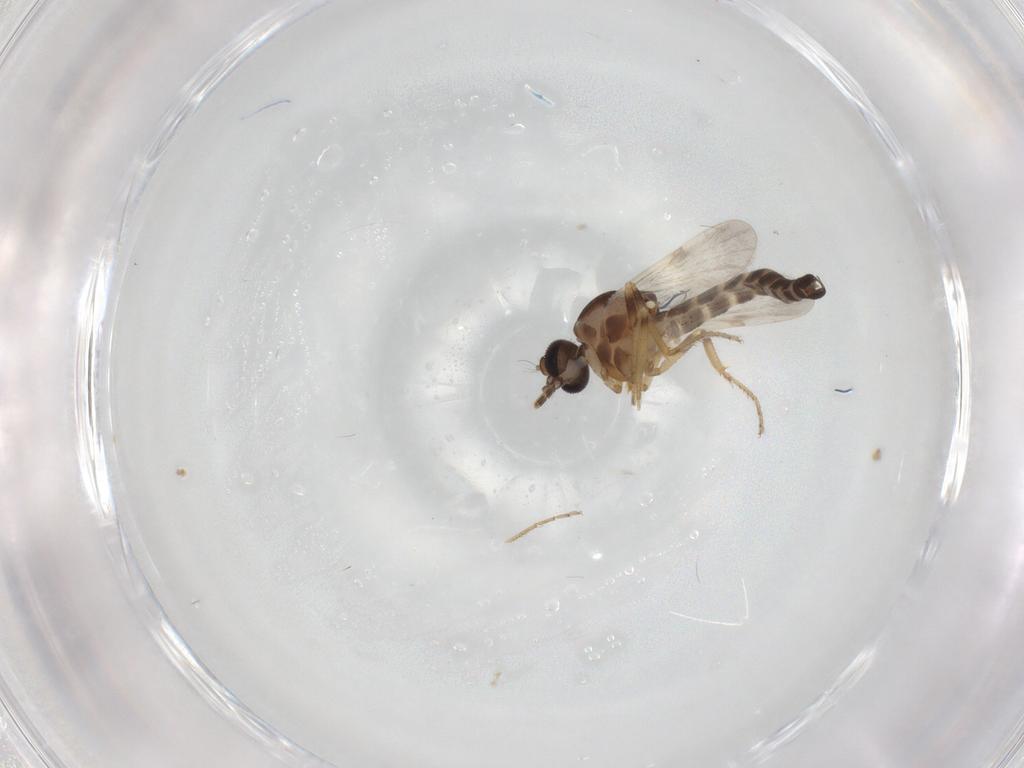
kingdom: Animalia
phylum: Arthropoda
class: Insecta
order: Diptera
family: Ceratopogonidae
